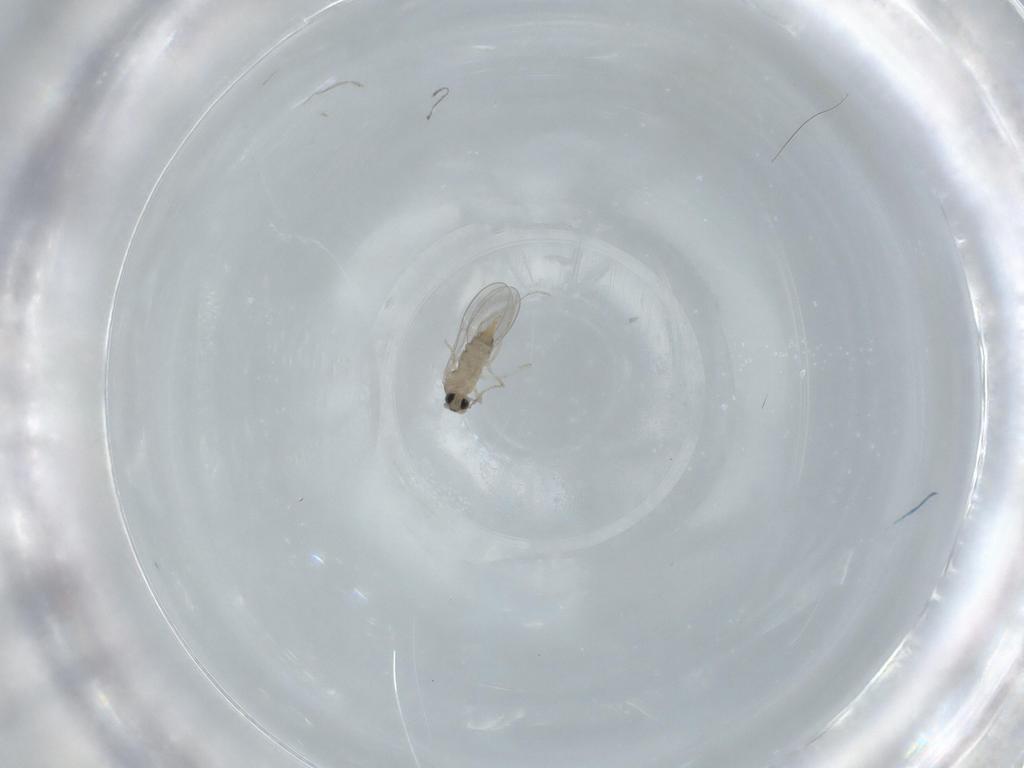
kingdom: Animalia
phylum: Arthropoda
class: Insecta
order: Diptera
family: Cecidomyiidae
